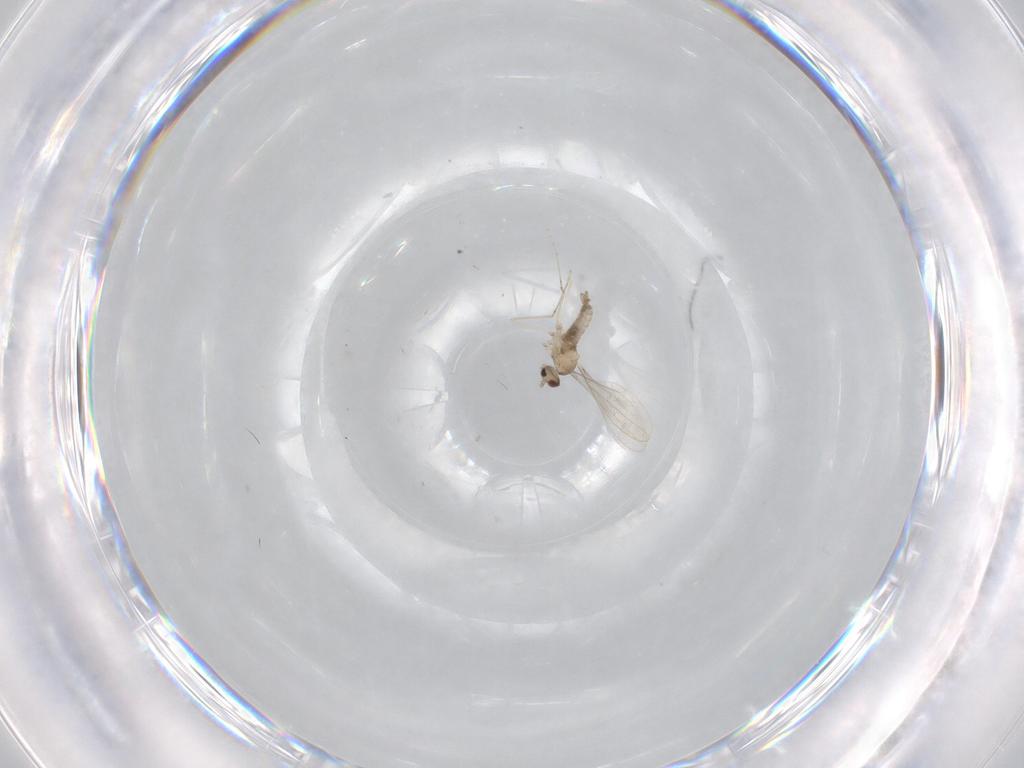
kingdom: Animalia
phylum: Arthropoda
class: Insecta
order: Diptera
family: Cecidomyiidae
